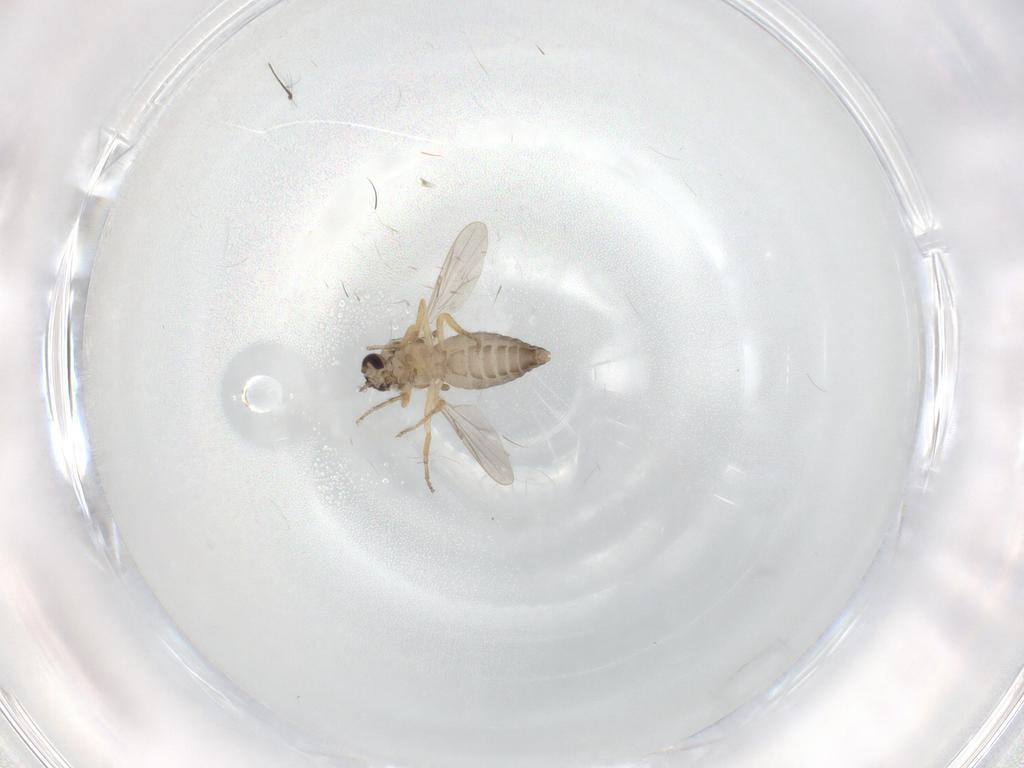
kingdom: Animalia
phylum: Arthropoda
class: Insecta
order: Diptera
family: Ceratopogonidae
